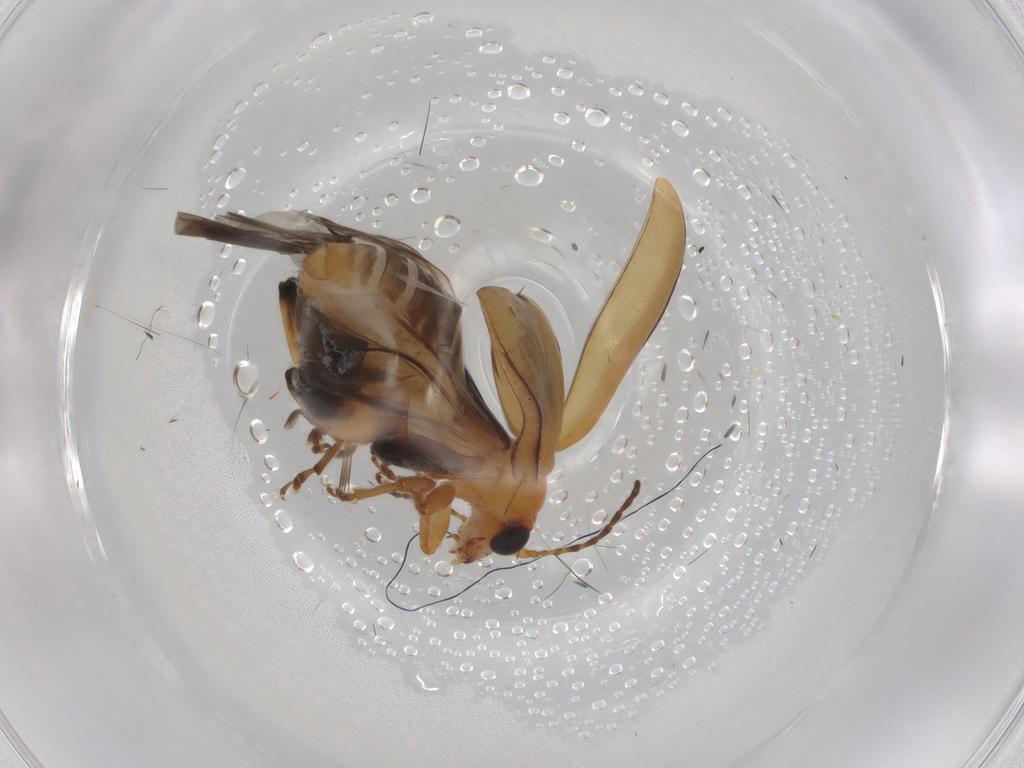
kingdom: Animalia
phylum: Arthropoda
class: Insecta
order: Coleoptera
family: Chrysomelidae
